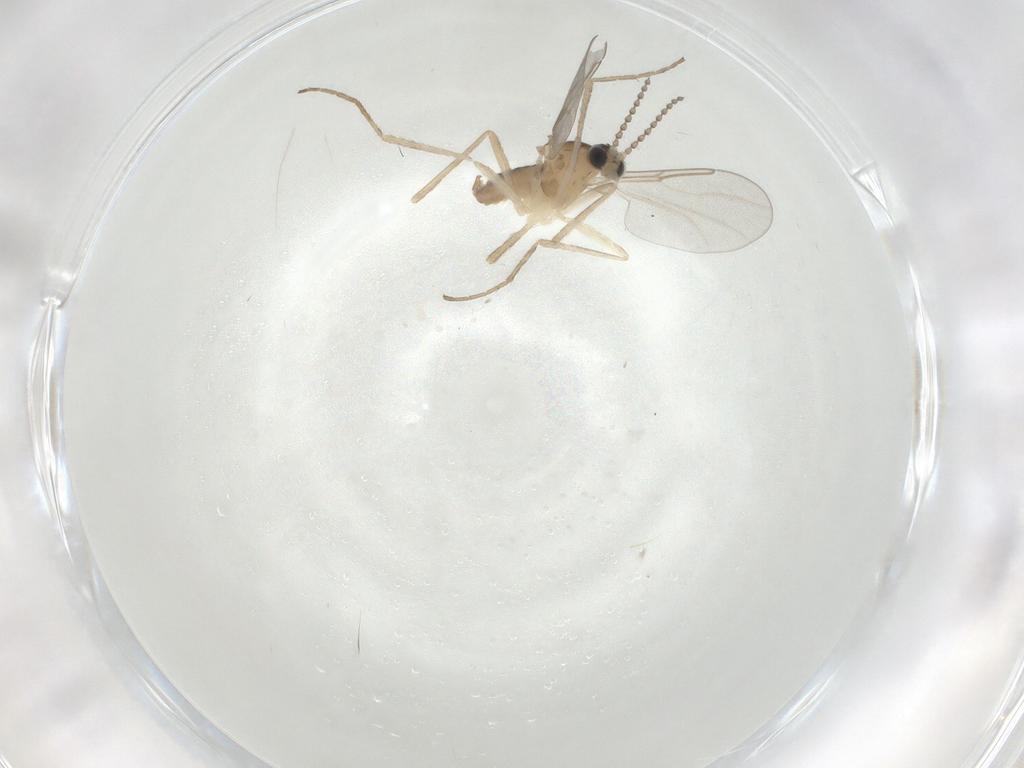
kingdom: Animalia
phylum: Arthropoda
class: Insecta
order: Diptera
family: Cecidomyiidae
